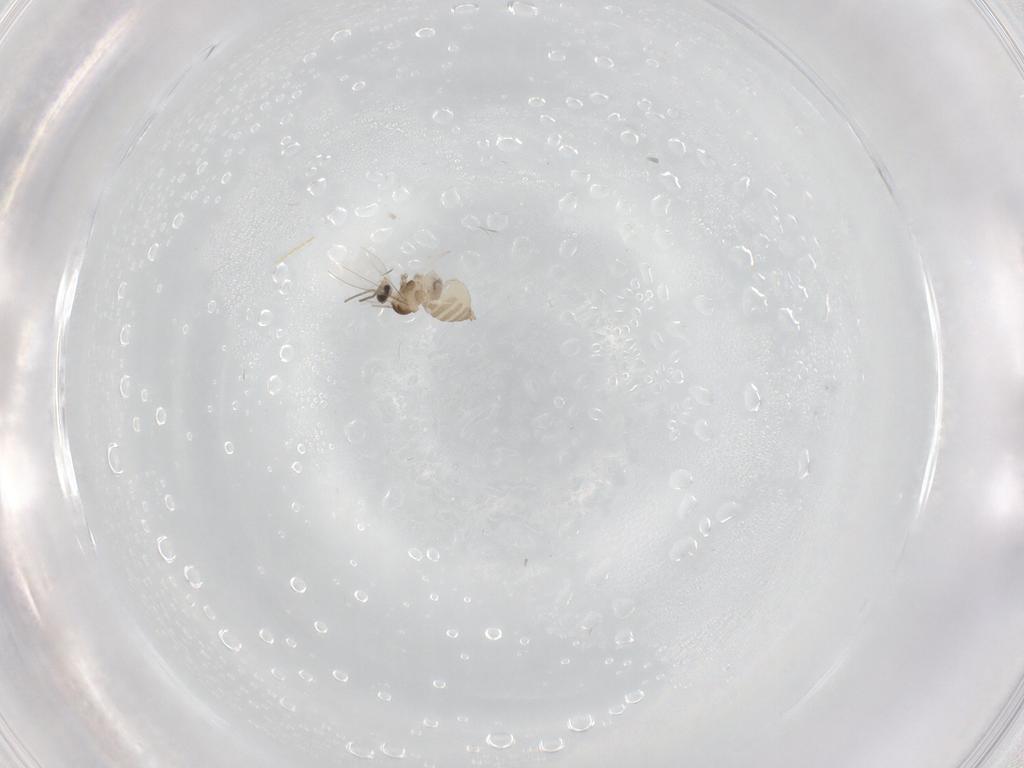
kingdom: Animalia
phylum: Arthropoda
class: Insecta
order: Diptera
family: Cecidomyiidae
